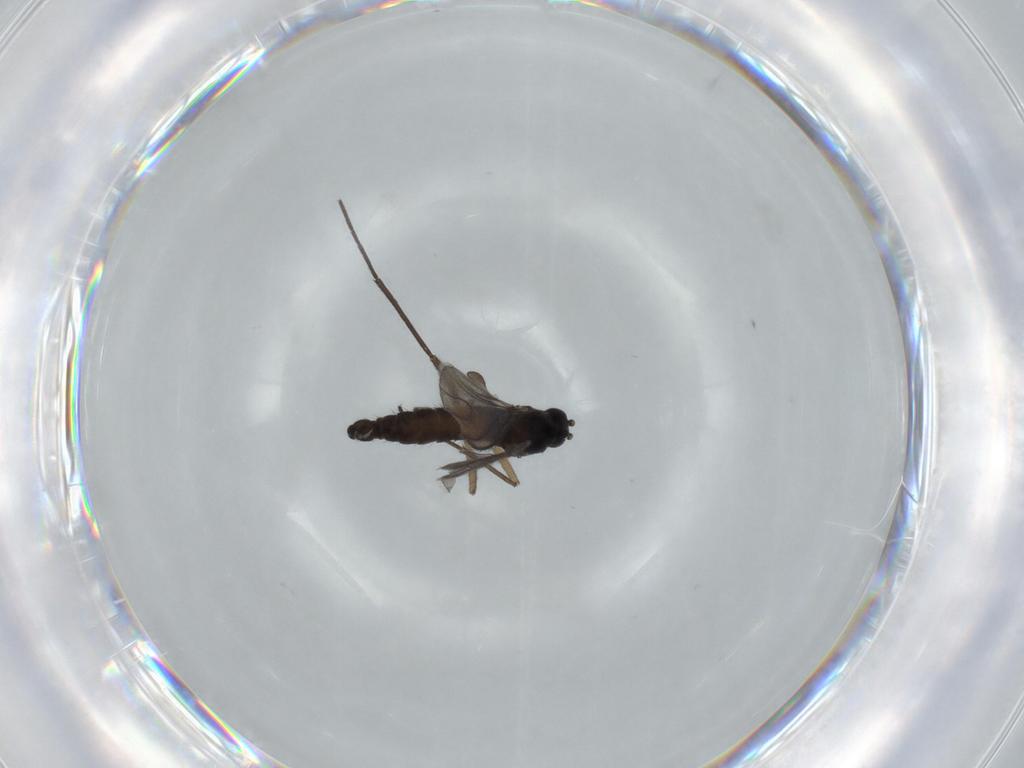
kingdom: Animalia
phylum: Arthropoda
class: Insecta
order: Diptera
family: Sciaridae
